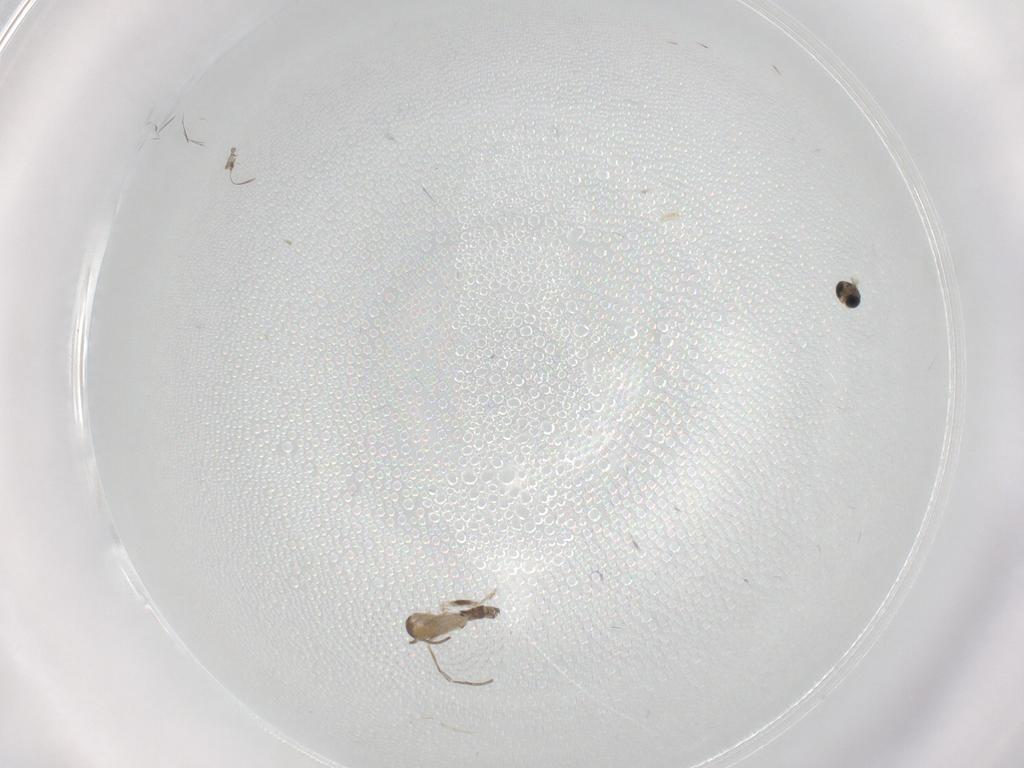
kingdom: Animalia
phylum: Arthropoda
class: Insecta
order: Diptera
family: Sciaridae
